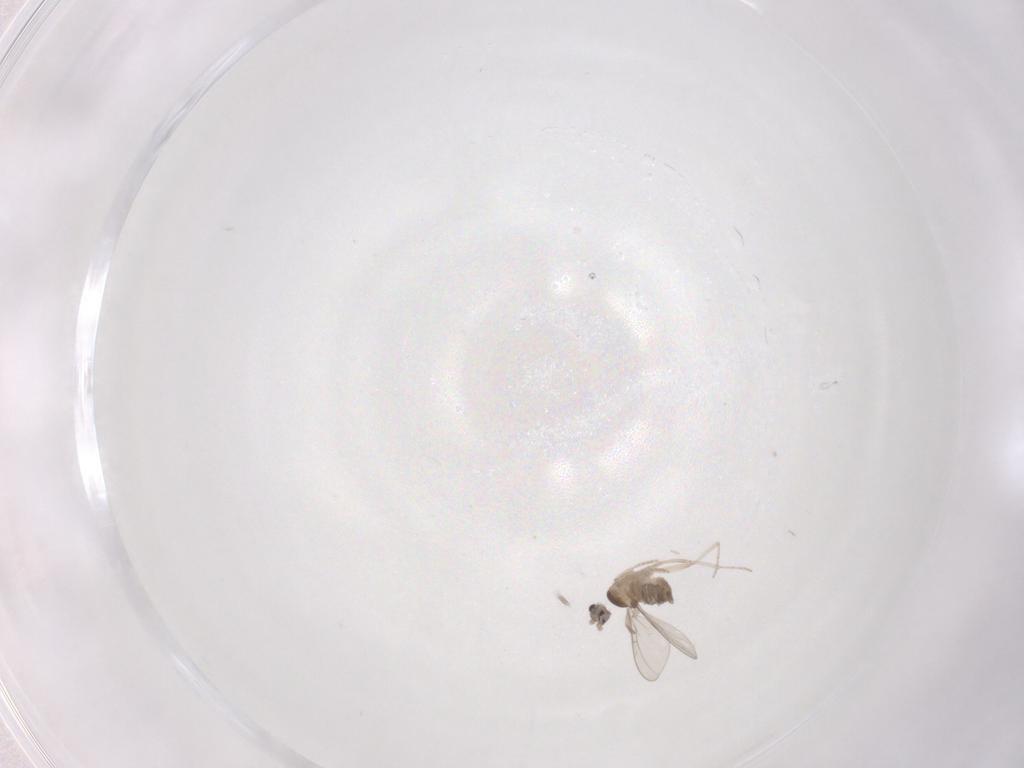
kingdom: Animalia
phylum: Arthropoda
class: Insecta
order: Diptera
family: Cecidomyiidae
